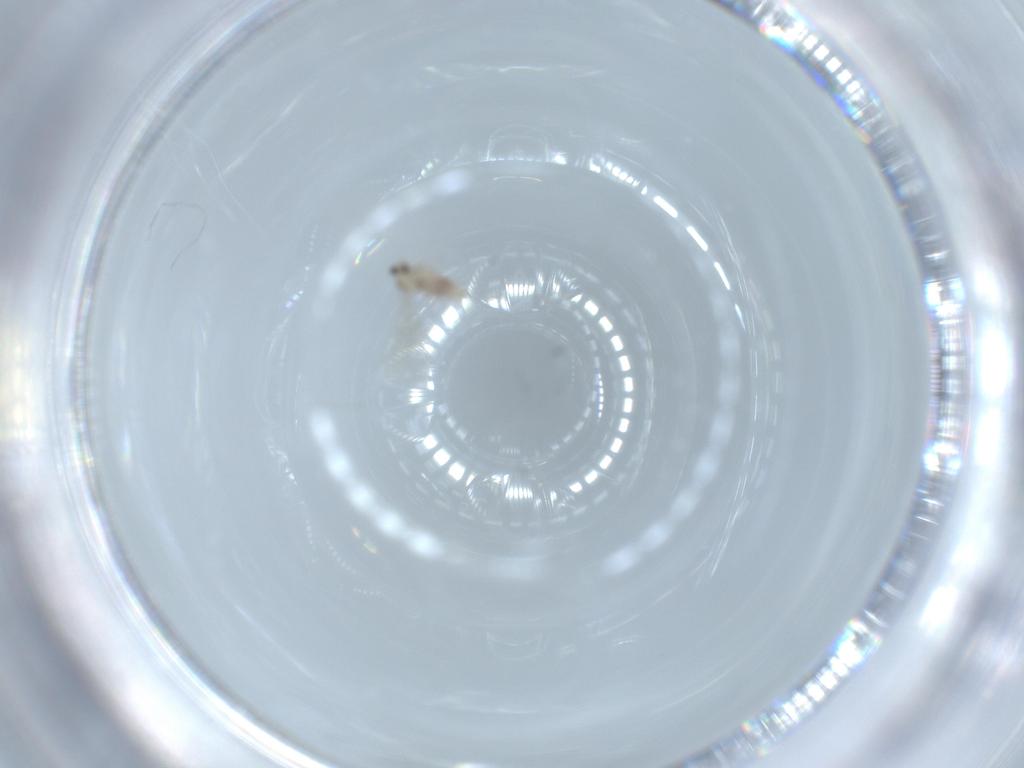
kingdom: Animalia
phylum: Arthropoda
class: Insecta
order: Diptera
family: Cecidomyiidae
